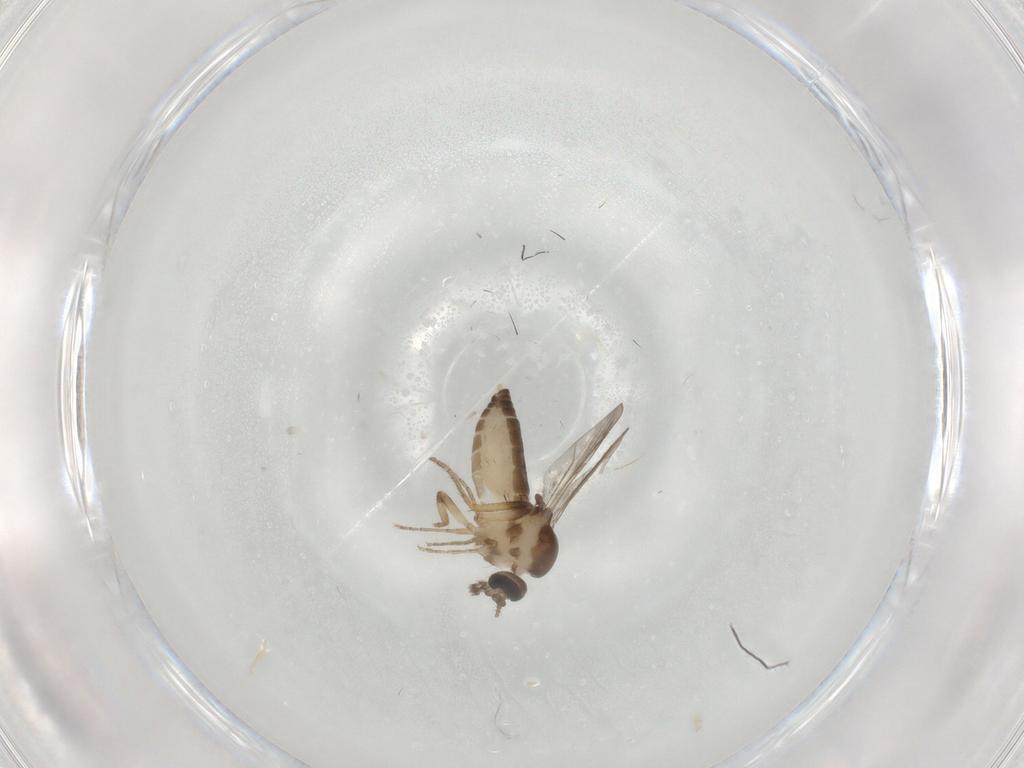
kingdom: Animalia
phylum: Arthropoda
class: Insecta
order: Diptera
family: Ceratopogonidae
